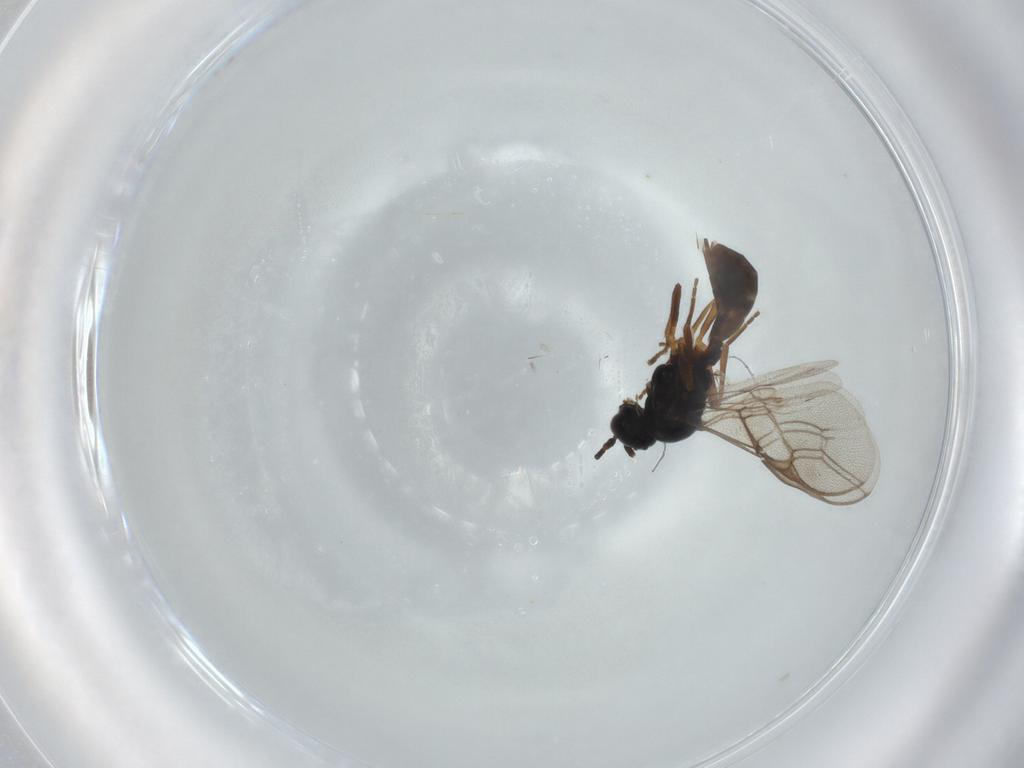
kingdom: Animalia
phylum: Arthropoda
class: Insecta
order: Hymenoptera
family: Braconidae
